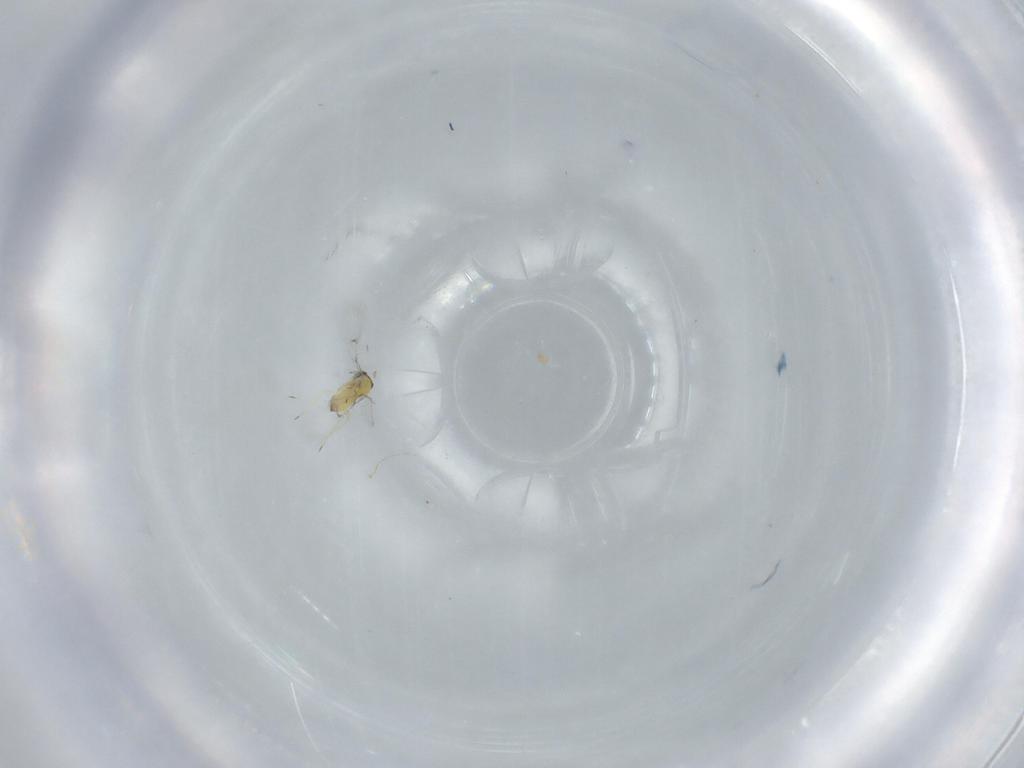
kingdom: Animalia
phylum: Arthropoda
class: Insecta
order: Hymenoptera
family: Trichogrammatidae
